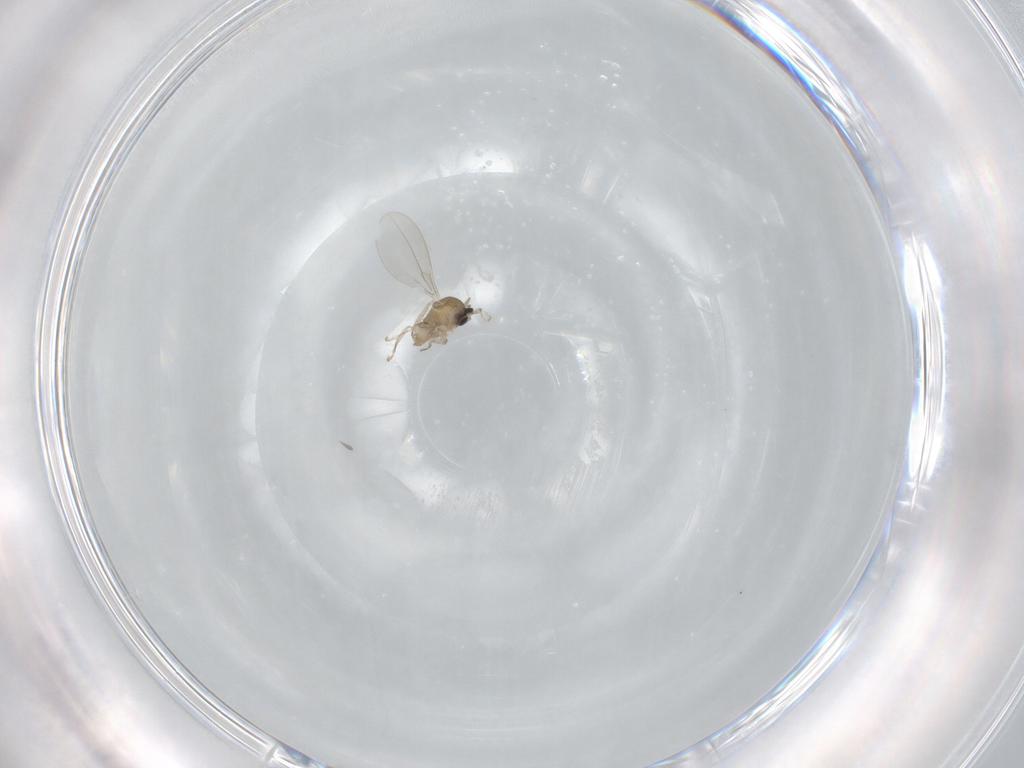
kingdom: Animalia
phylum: Arthropoda
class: Insecta
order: Diptera
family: Cecidomyiidae
